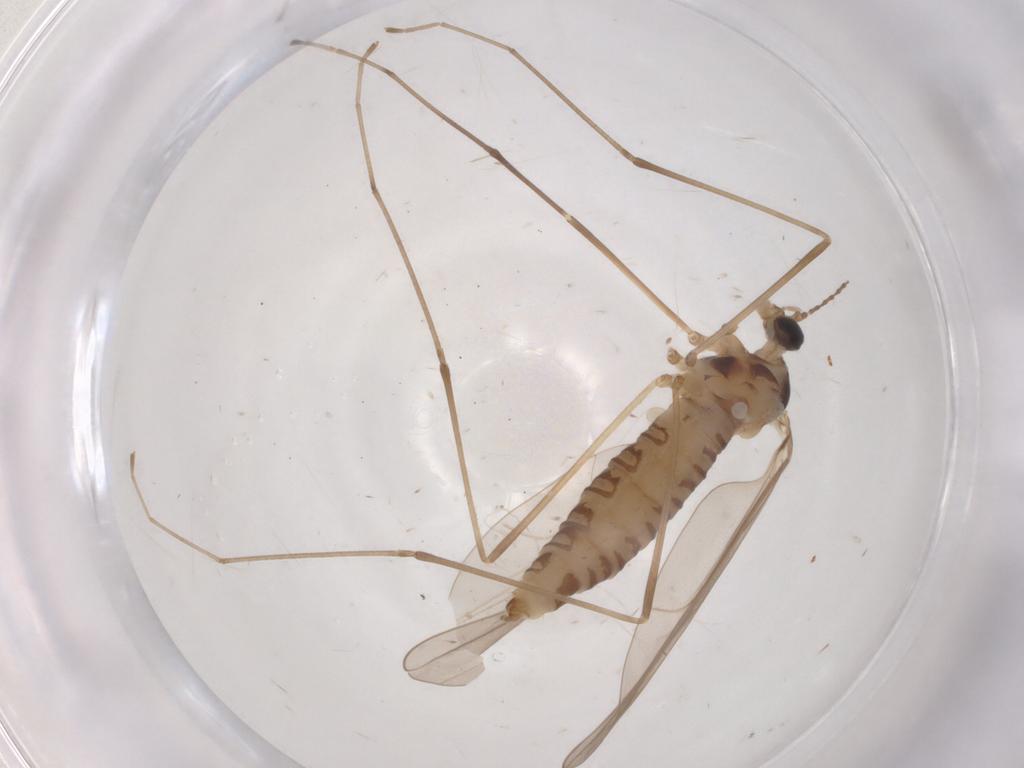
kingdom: Animalia
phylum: Arthropoda
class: Insecta
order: Diptera
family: Cecidomyiidae
